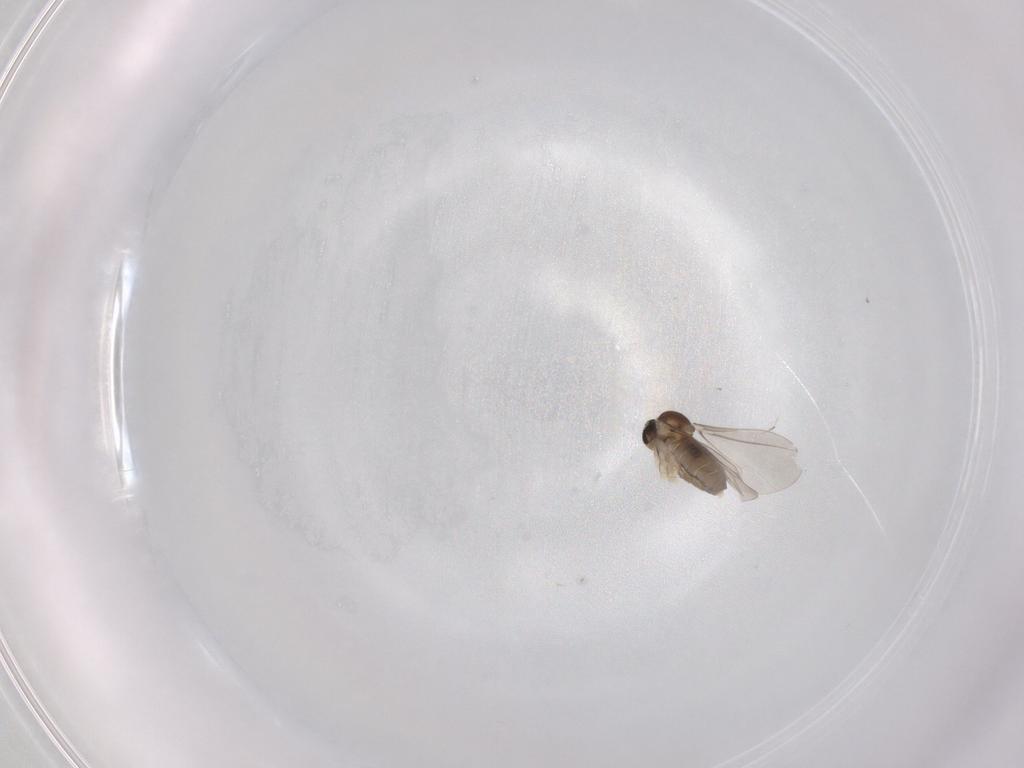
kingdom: Animalia
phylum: Arthropoda
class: Insecta
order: Diptera
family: Cecidomyiidae
